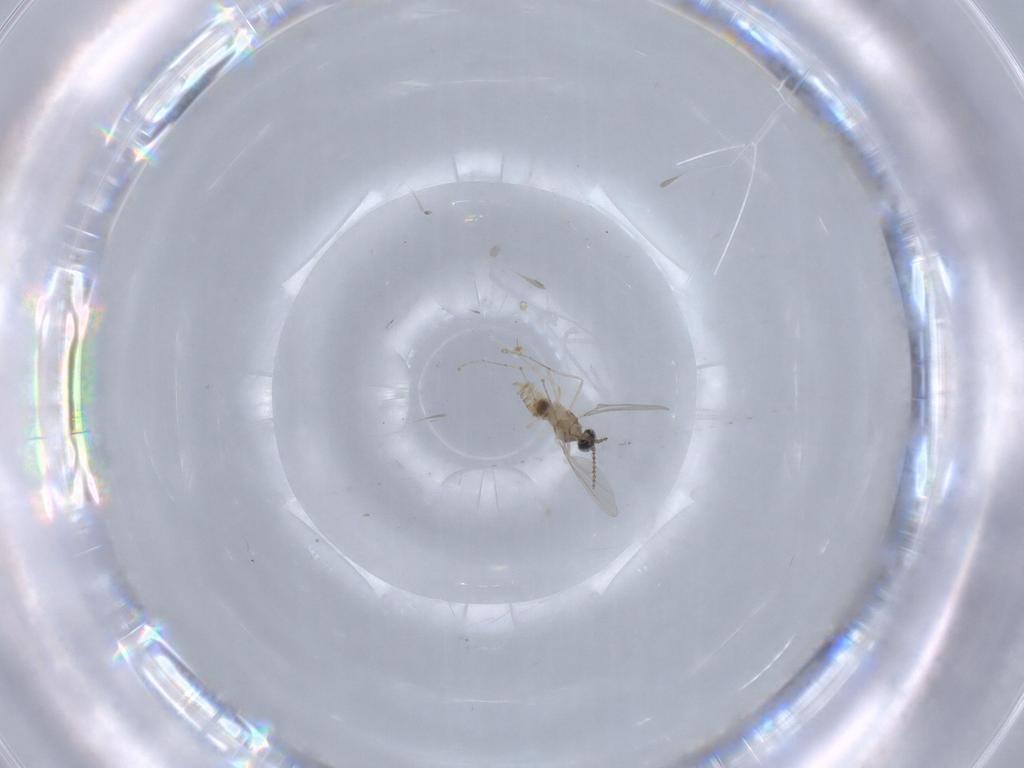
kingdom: Animalia
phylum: Arthropoda
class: Insecta
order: Diptera
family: Cecidomyiidae
